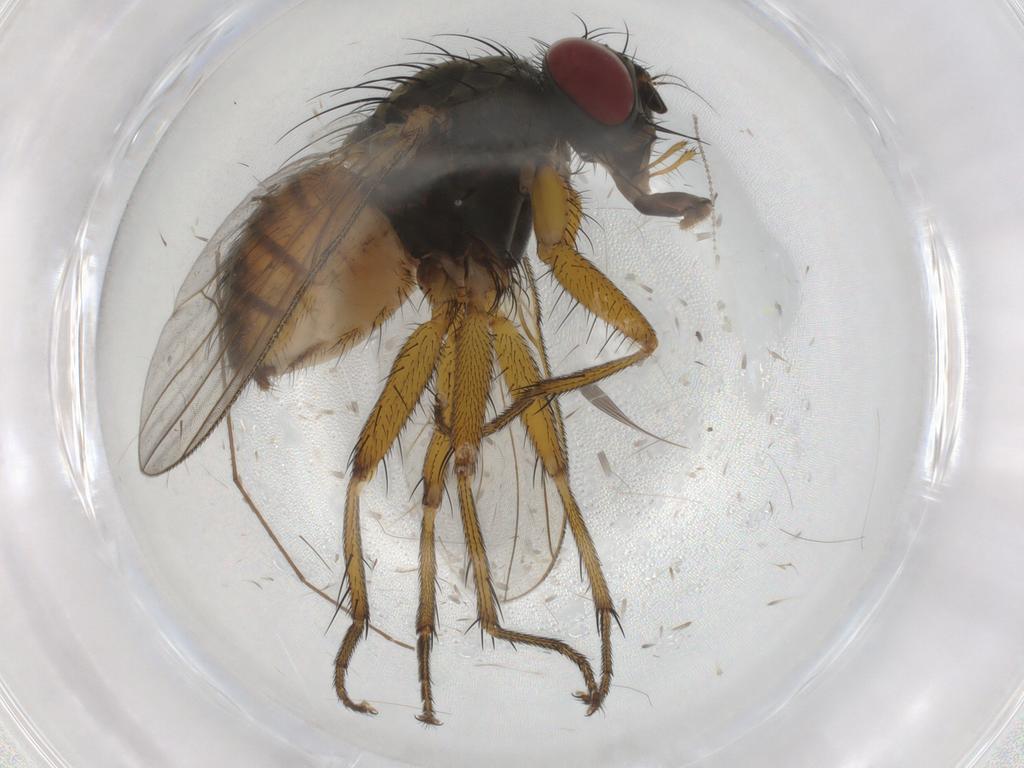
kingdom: Animalia
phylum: Arthropoda
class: Insecta
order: Diptera
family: Muscidae
